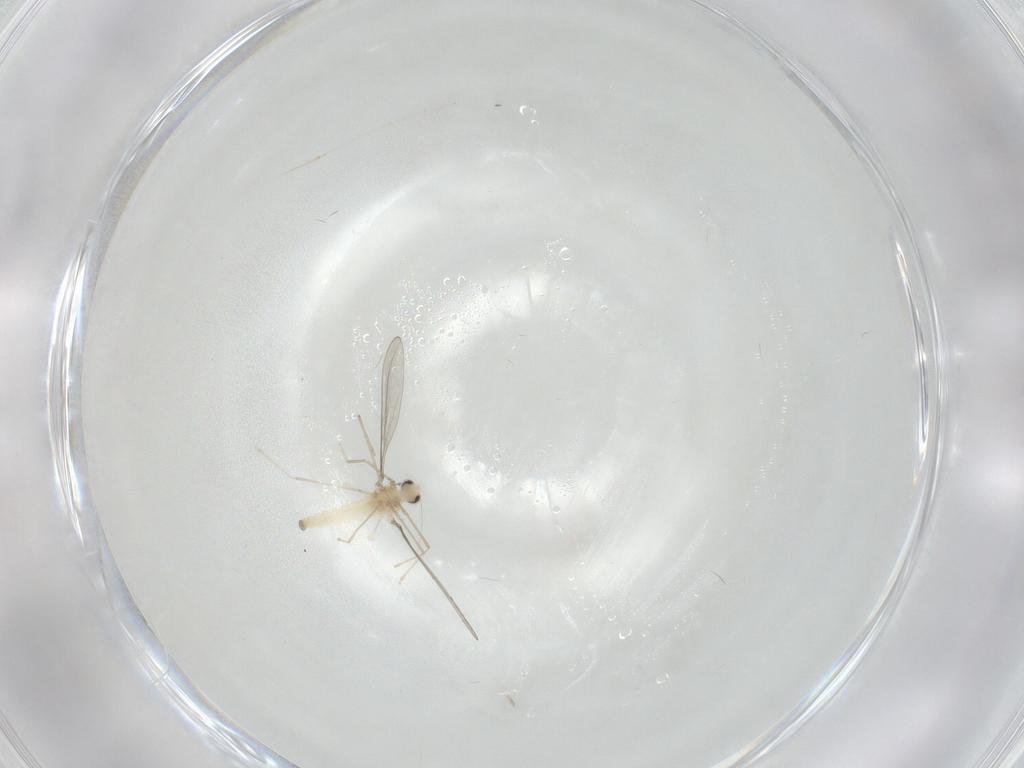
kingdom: Animalia
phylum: Arthropoda
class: Insecta
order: Diptera
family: Cecidomyiidae
